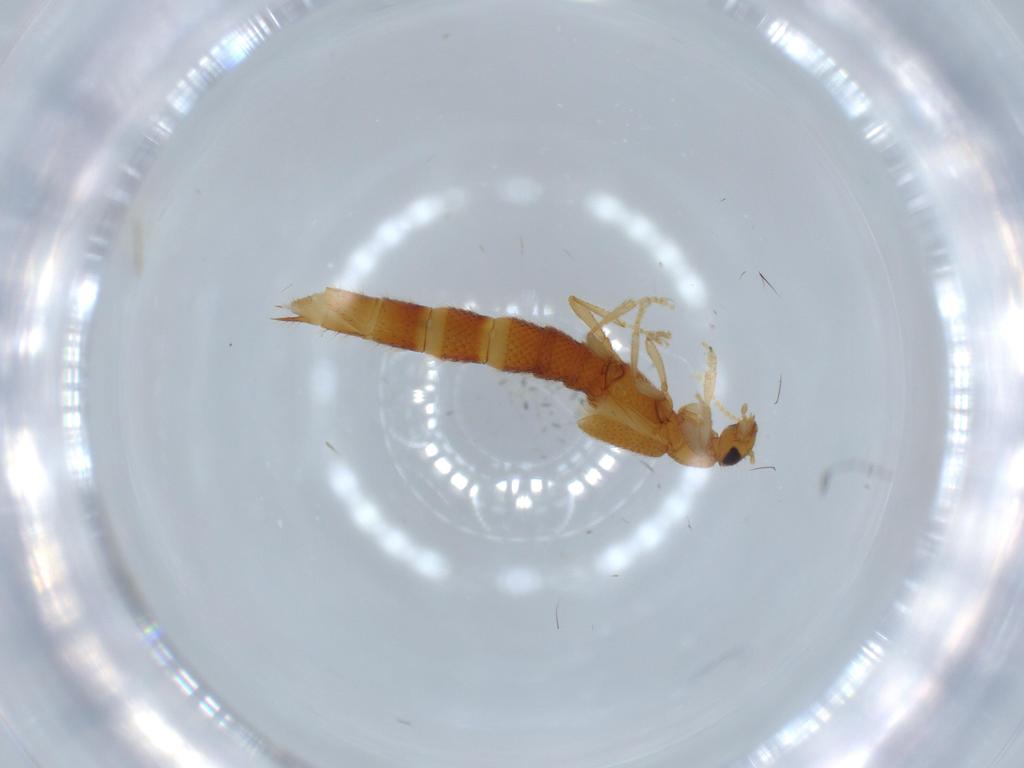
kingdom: Animalia
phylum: Arthropoda
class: Insecta
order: Coleoptera
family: Staphylinidae
